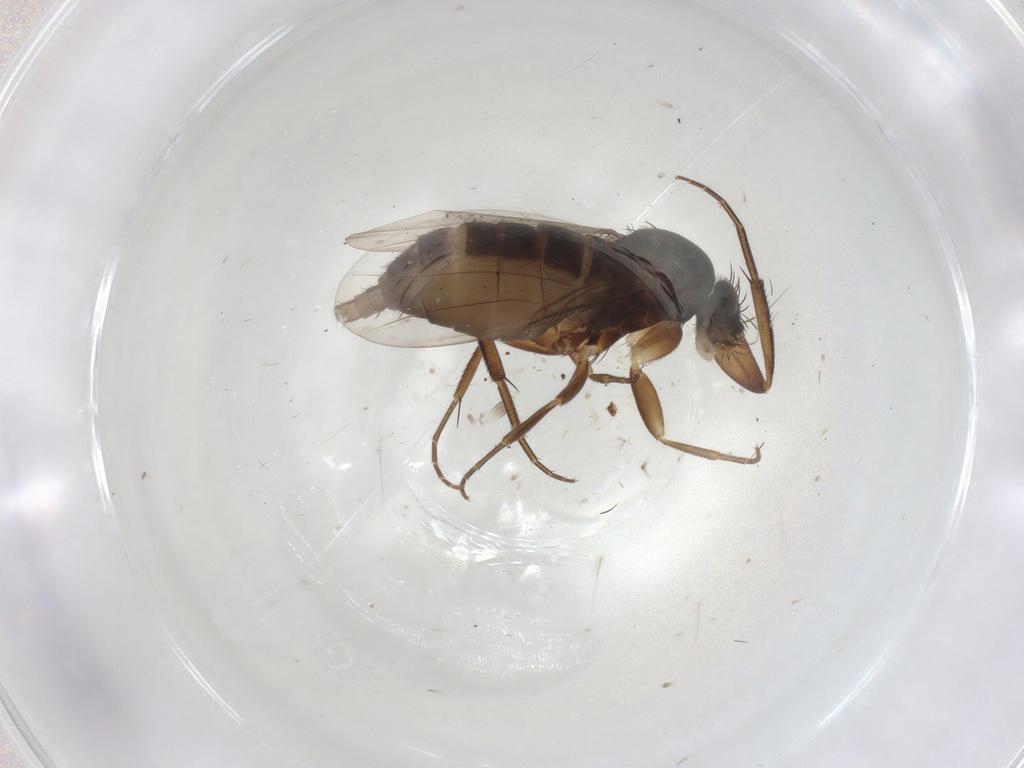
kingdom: Animalia
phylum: Arthropoda
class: Insecta
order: Diptera
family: Phoridae
